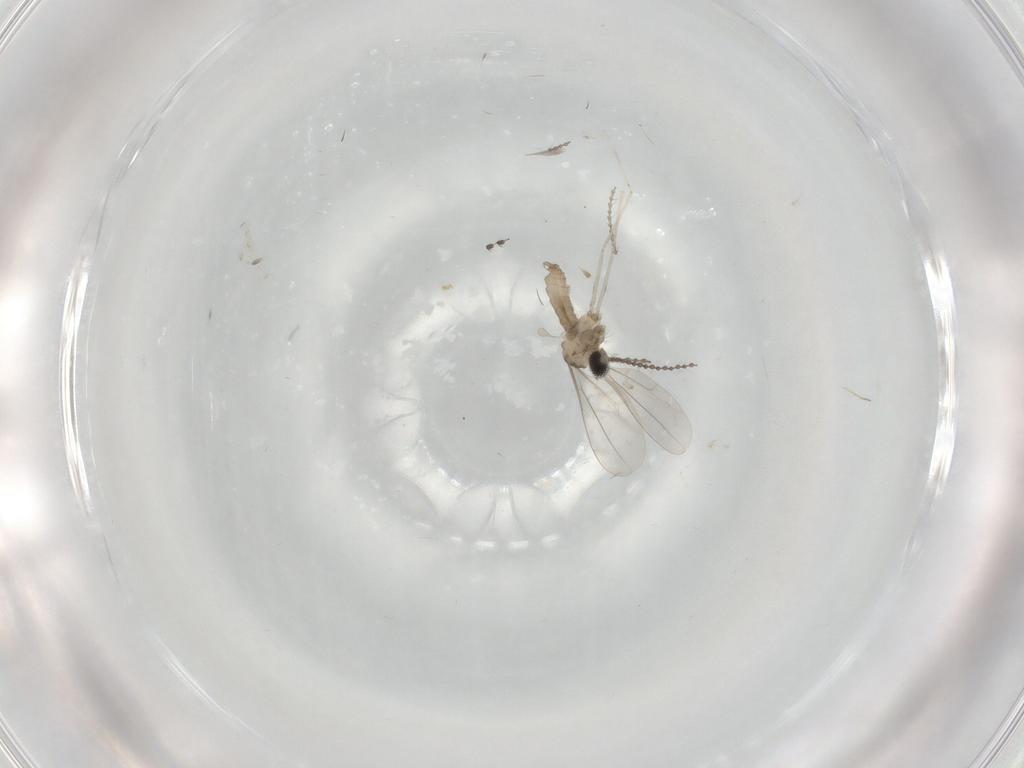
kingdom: Animalia
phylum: Arthropoda
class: Insecta
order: Diptera
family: Cecidomyiidae
